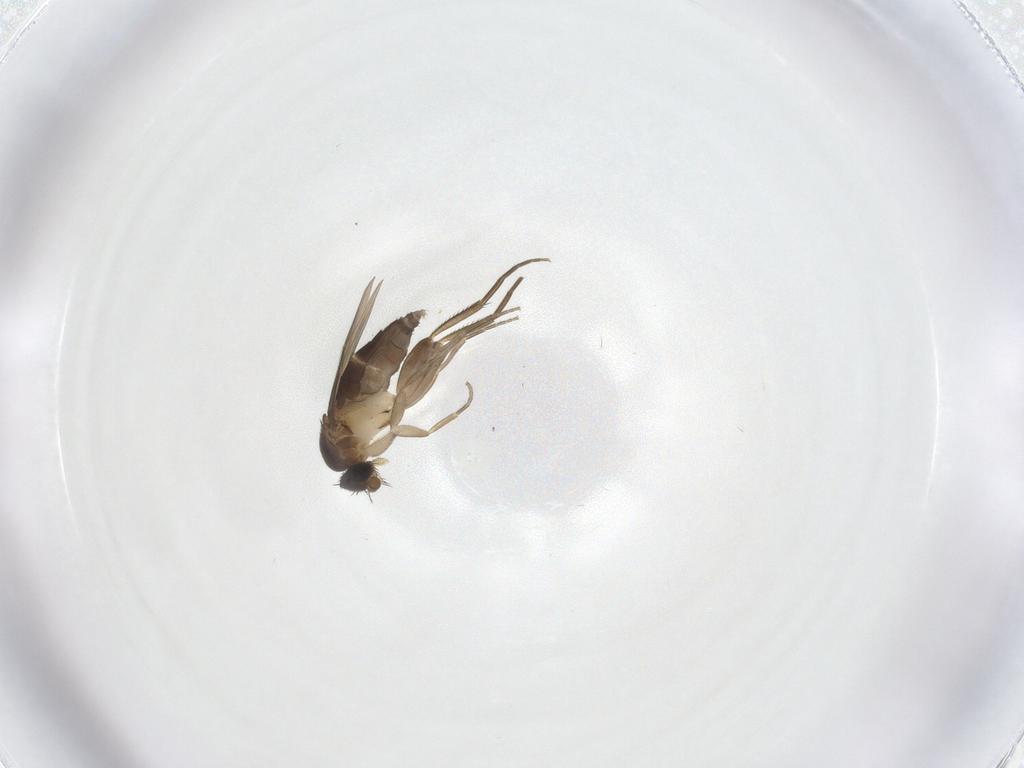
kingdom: Animalia
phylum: Arthropoda
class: Insecta
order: Diptera
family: Phoridae
